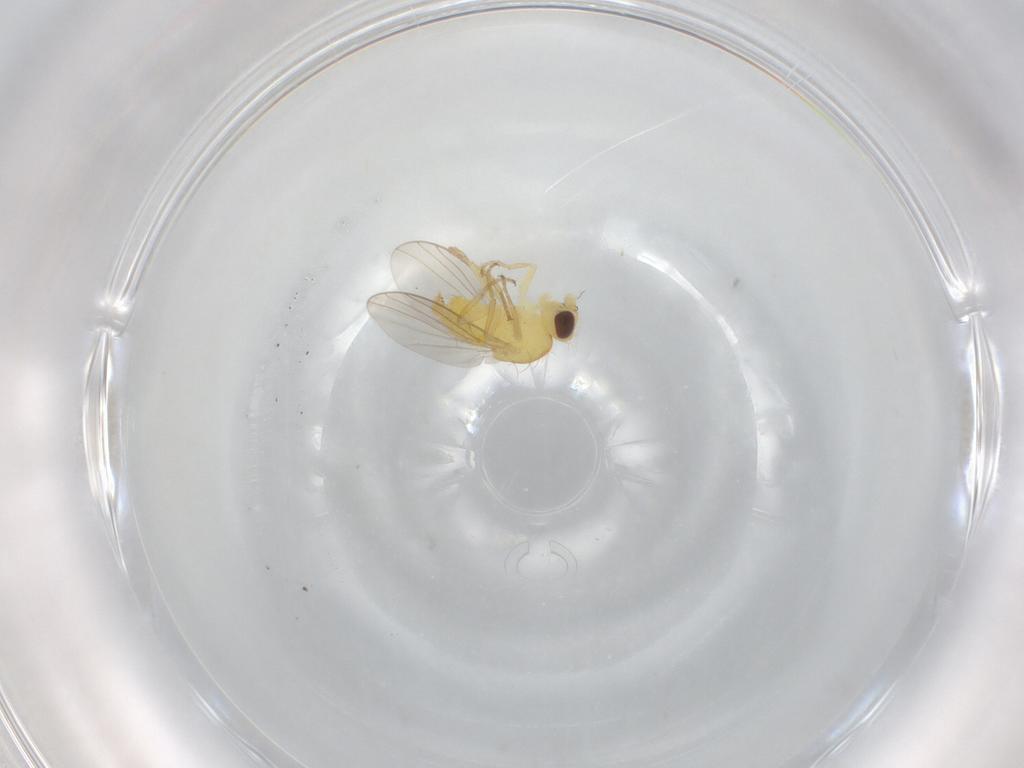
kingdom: Animalia
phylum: Arthropoda
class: Insecta
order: Diptera
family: Agromyzidae
